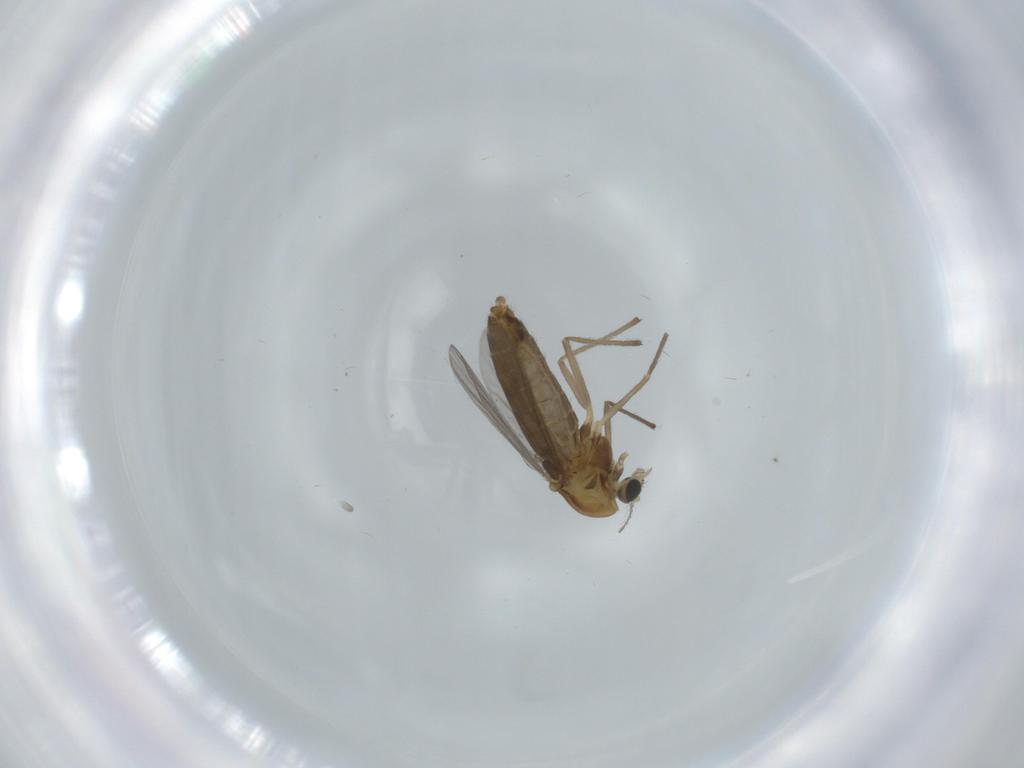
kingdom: Animalia
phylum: Arthropoda
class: Insecta
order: Diptera
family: Chironomidae
